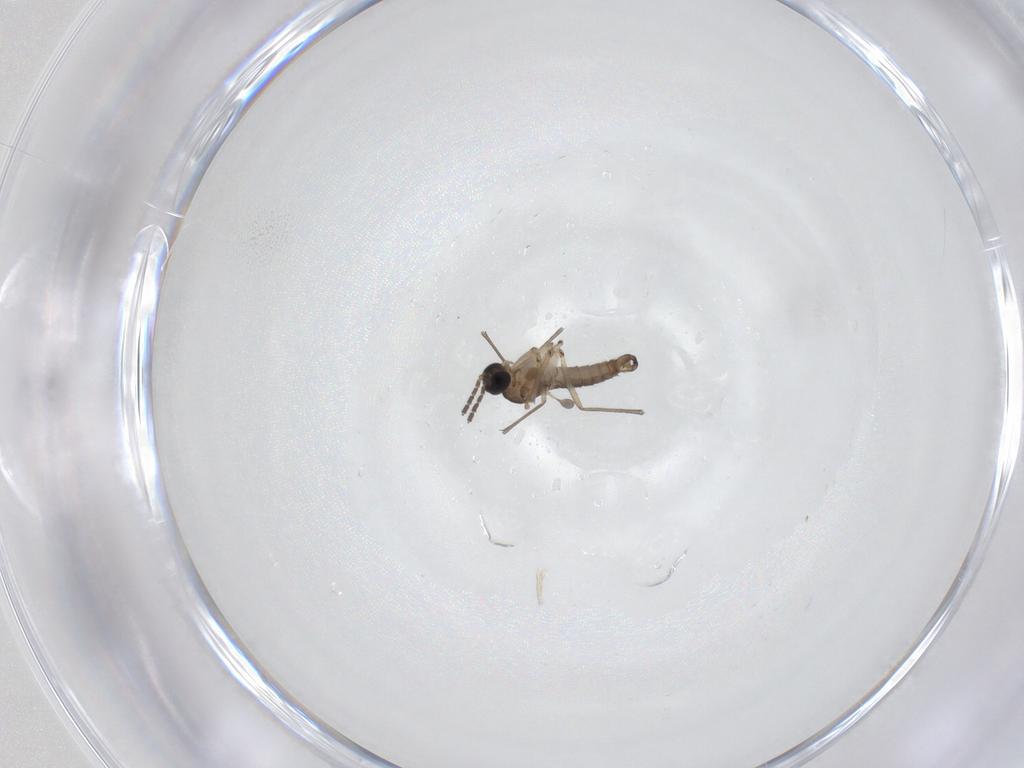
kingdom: Animalia
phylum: Arthropoda
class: Insecta
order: Diptera
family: Sciaridae
